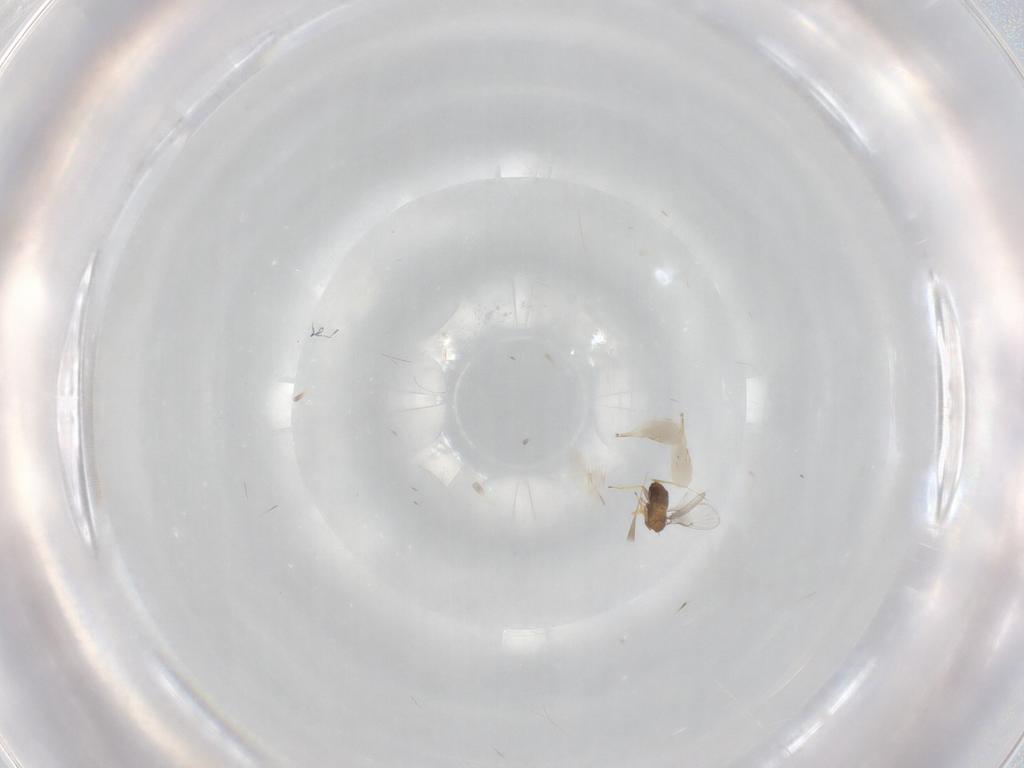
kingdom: Animalia
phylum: Arthropoda
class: Insecta
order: Hymenoptera
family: Trichogrammatidae
